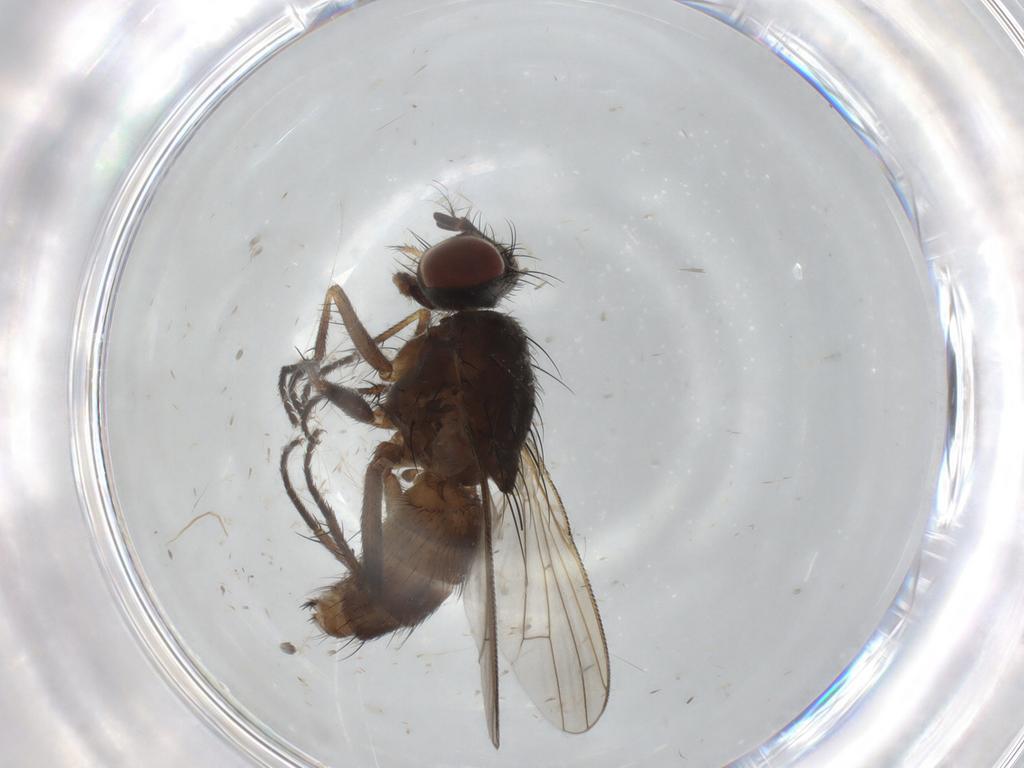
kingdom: Animalia
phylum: Arthropoda
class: Insecta
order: Diptera
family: Muscidae
